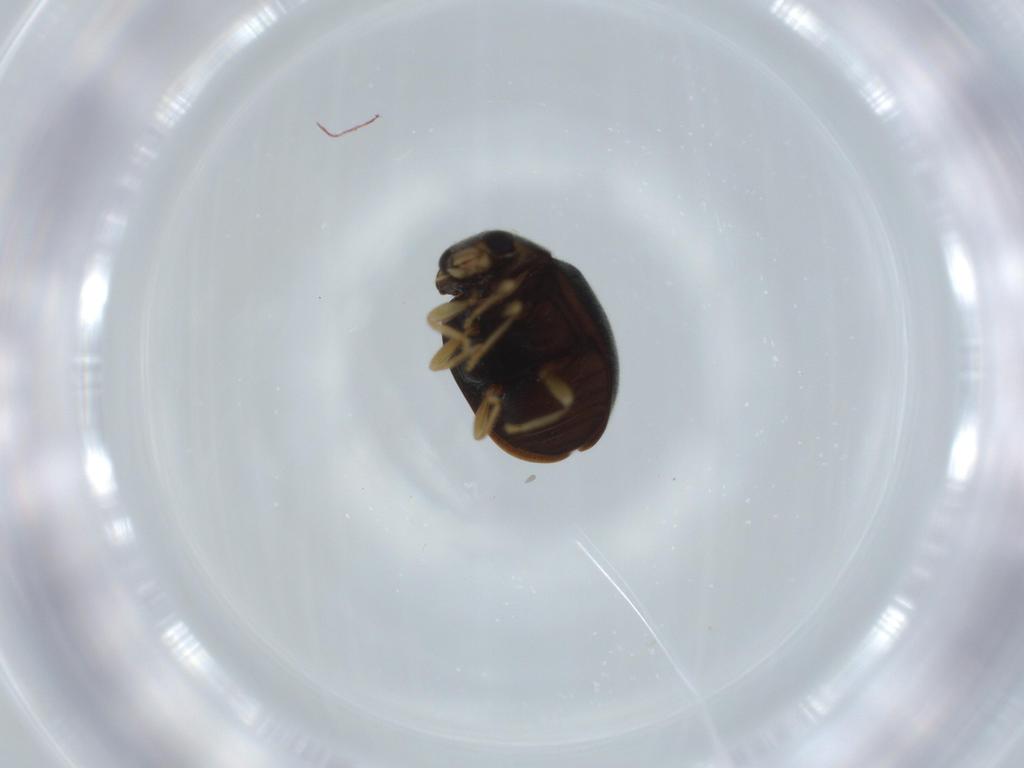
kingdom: Animalia
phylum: Arthropoda
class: Insecta
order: Coleoptera
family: Coccinellidae
